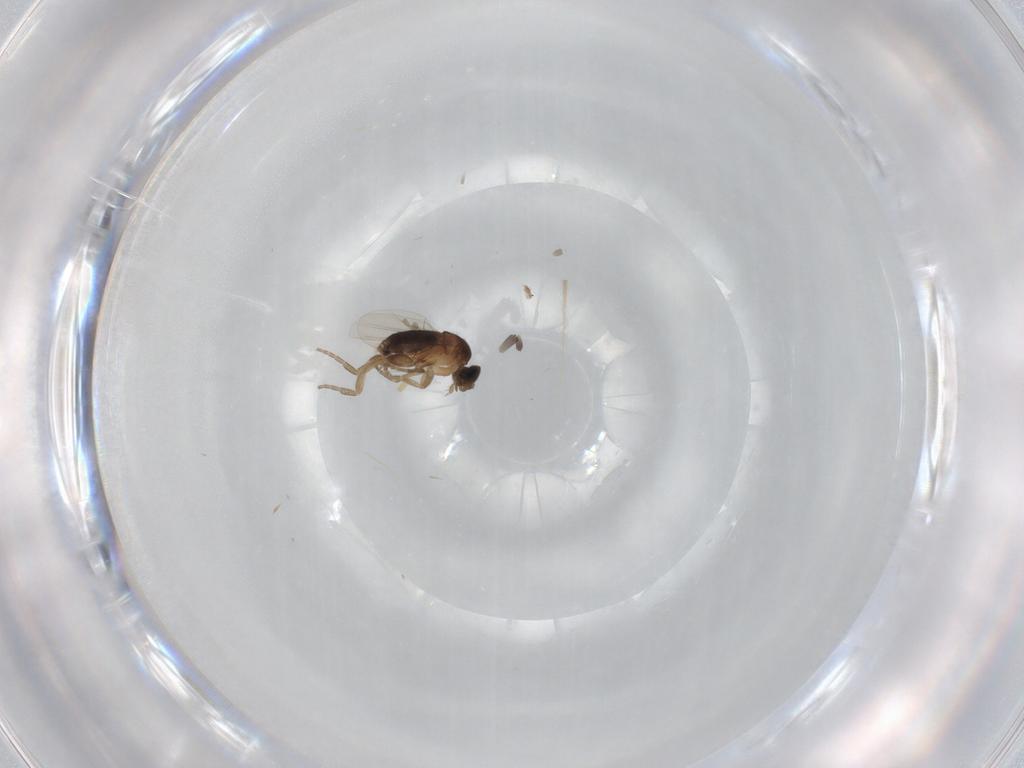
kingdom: Animalia
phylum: Arthropoda
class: Insecta
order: Diptera
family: Phoridae
